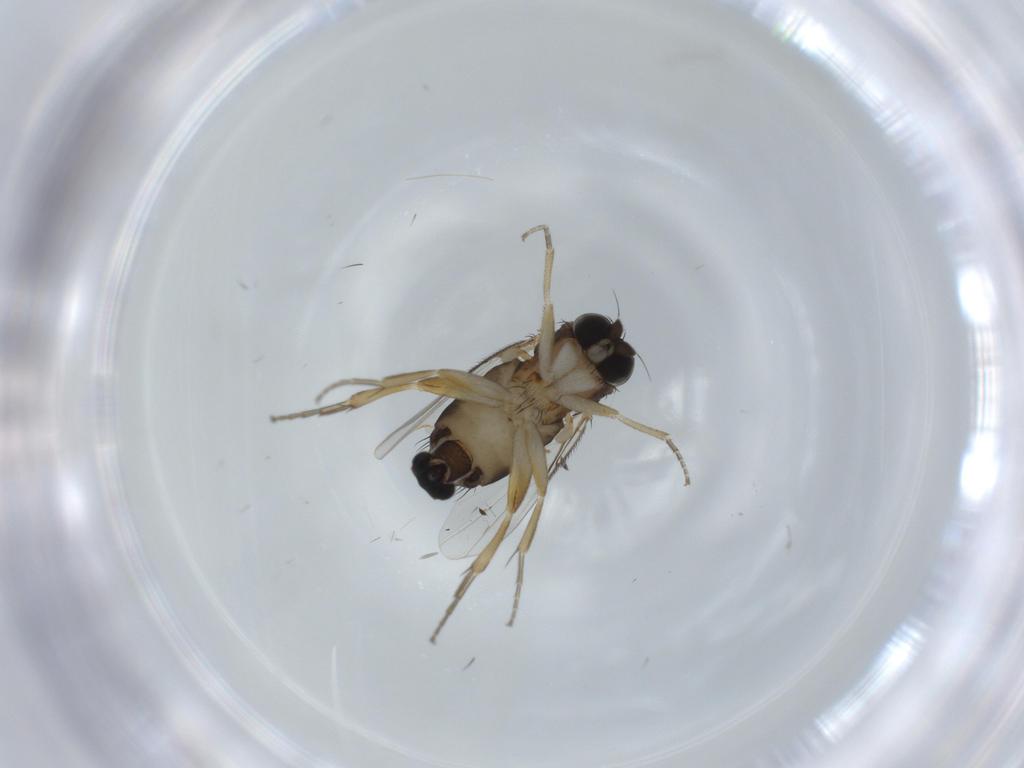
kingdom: Animalia
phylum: Arthropoda
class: Insecta
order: Diptera
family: Phoridae
